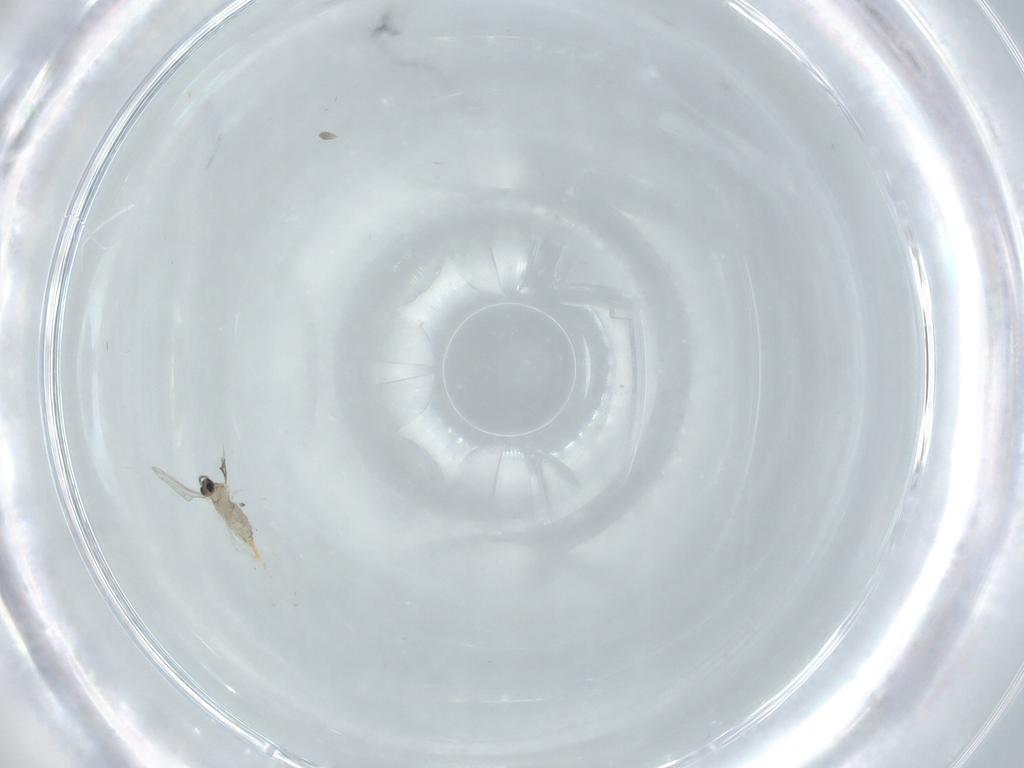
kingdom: Animalia
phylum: Arthropoda
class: Insecta
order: Diptera
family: Cecidomyiidae
